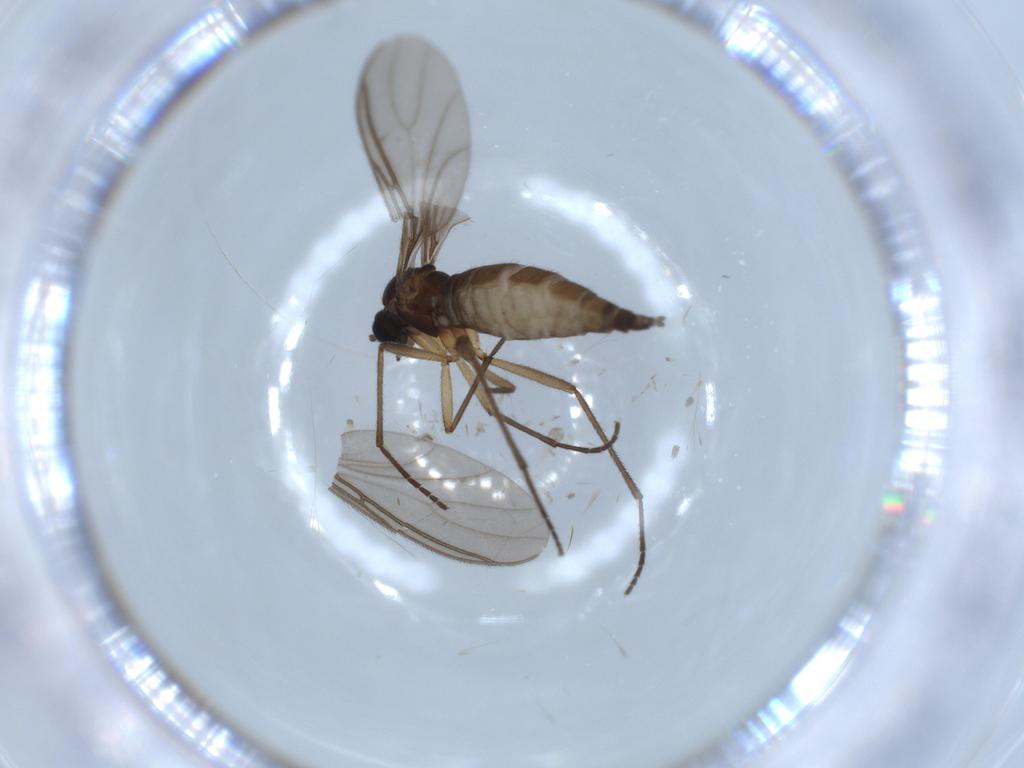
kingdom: Animalia
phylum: Arthropoda
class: Insecta
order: Diptera
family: Sciaridae
